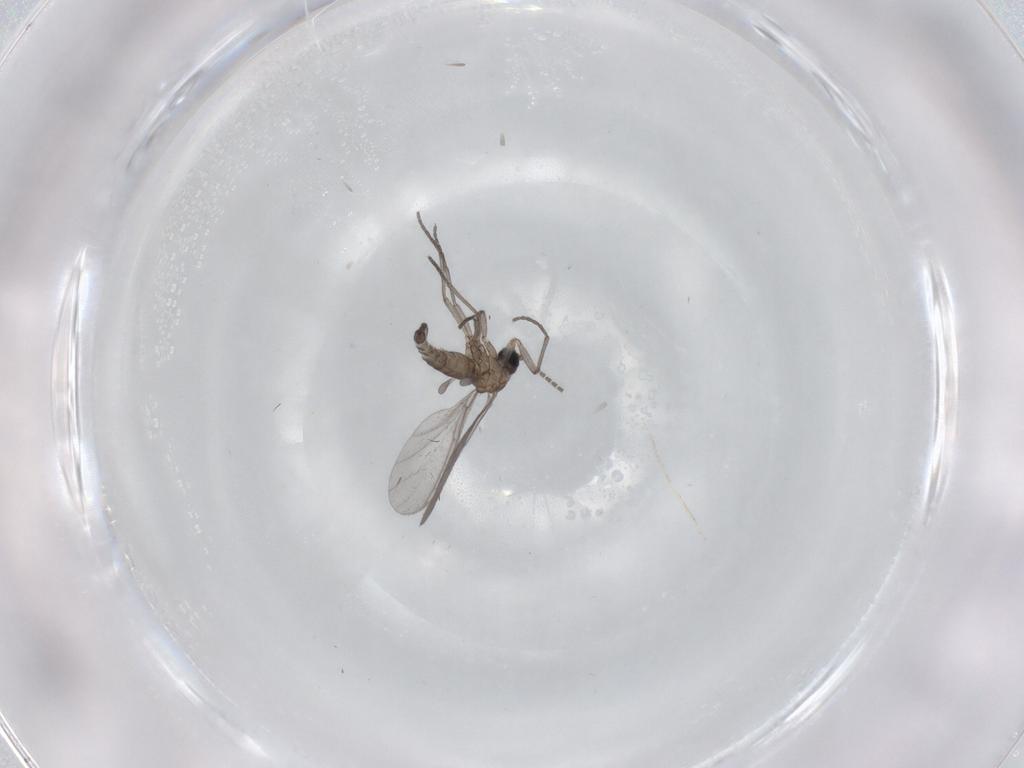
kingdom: Animalia
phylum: Arthropoda
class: Insecta
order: Diptera
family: Sciaridae
